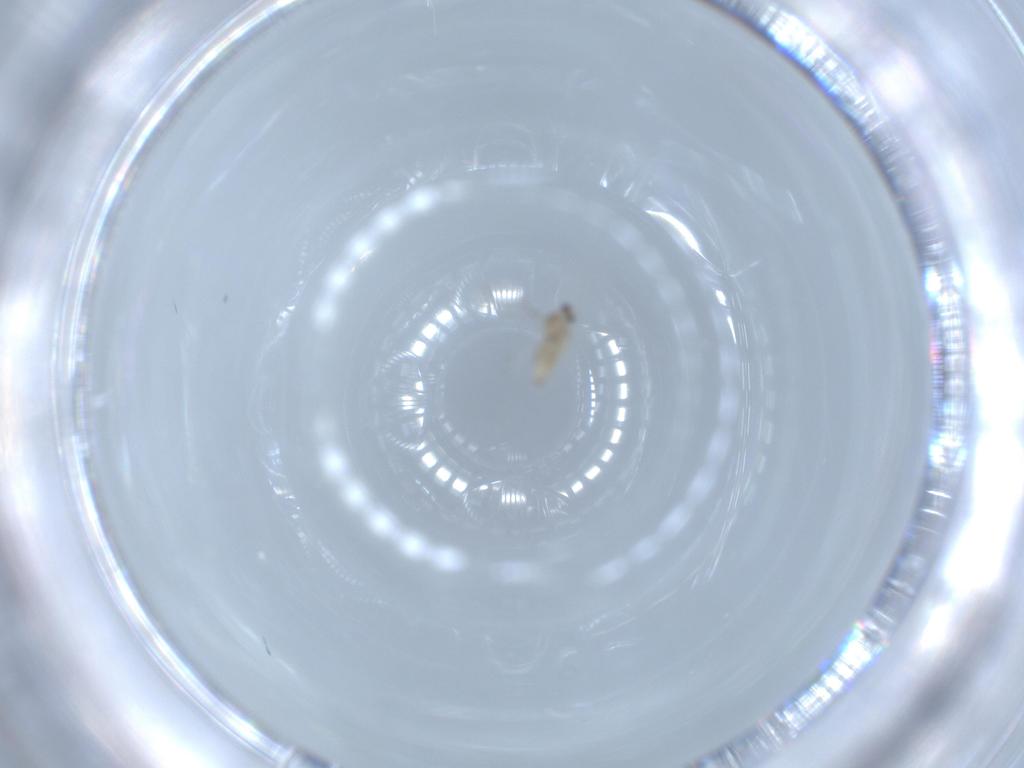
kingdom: Animalia
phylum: Arthropoda
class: Insecta
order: Diptera
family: Cecidomyiidae
